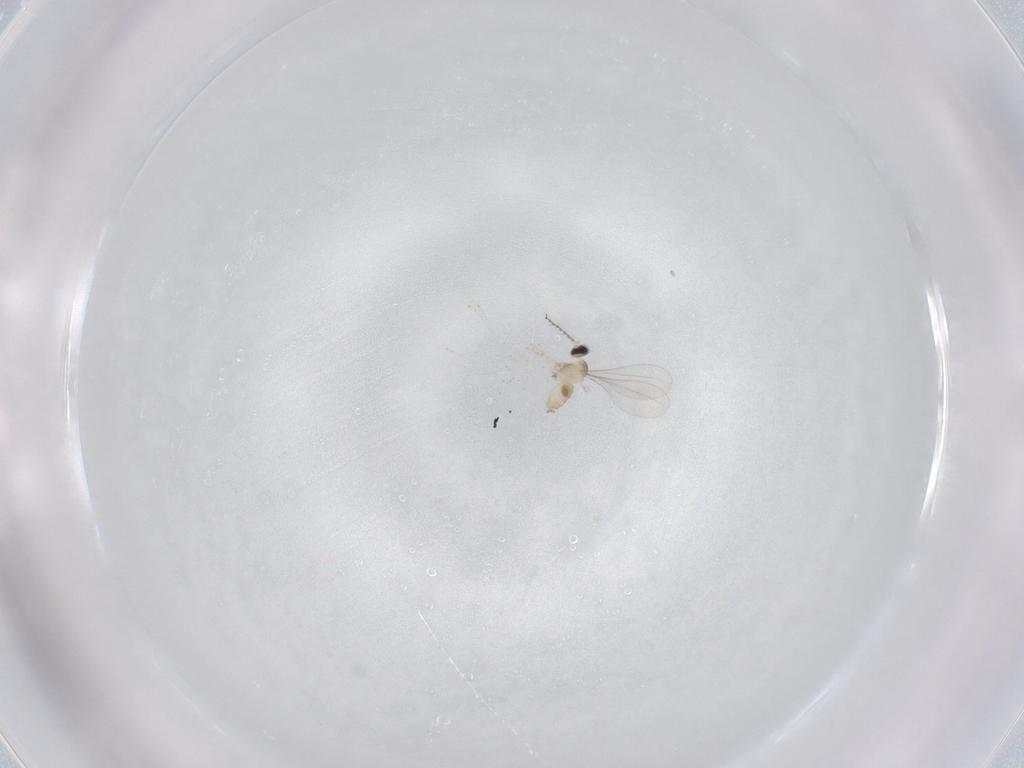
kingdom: Animalia
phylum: Arthropoda
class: Insecta
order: Diptera
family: Cecidomyiidae
